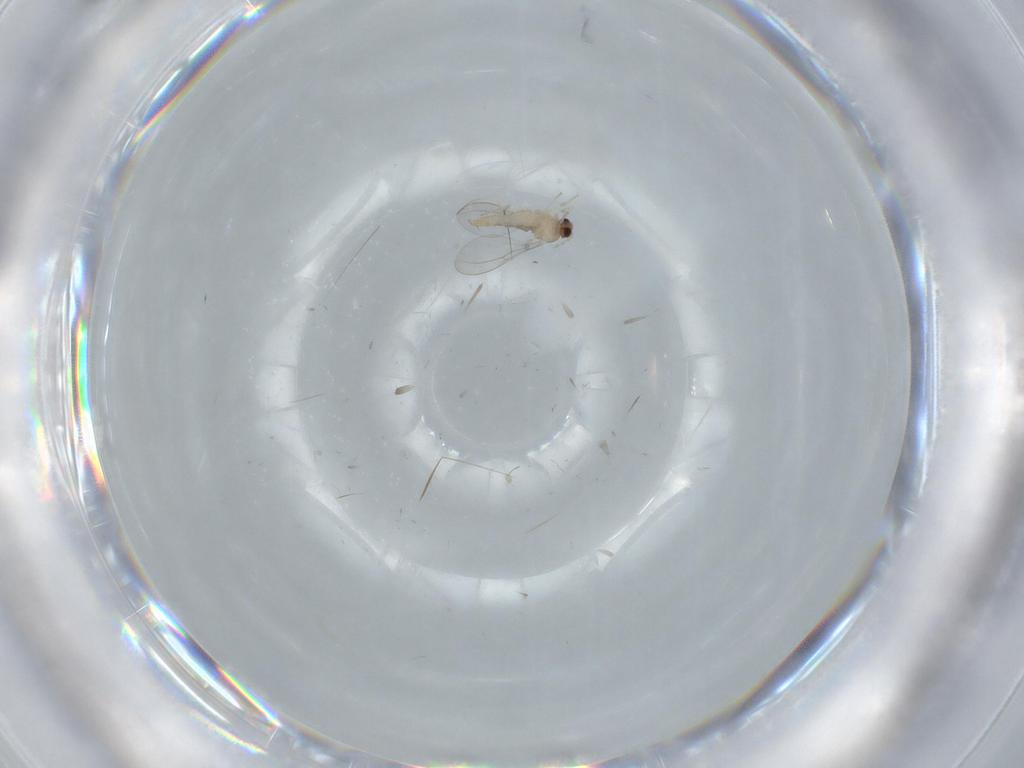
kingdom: Animalia
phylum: Arthropoda
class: Insecta
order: Diptera
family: Cecidomyiidae
